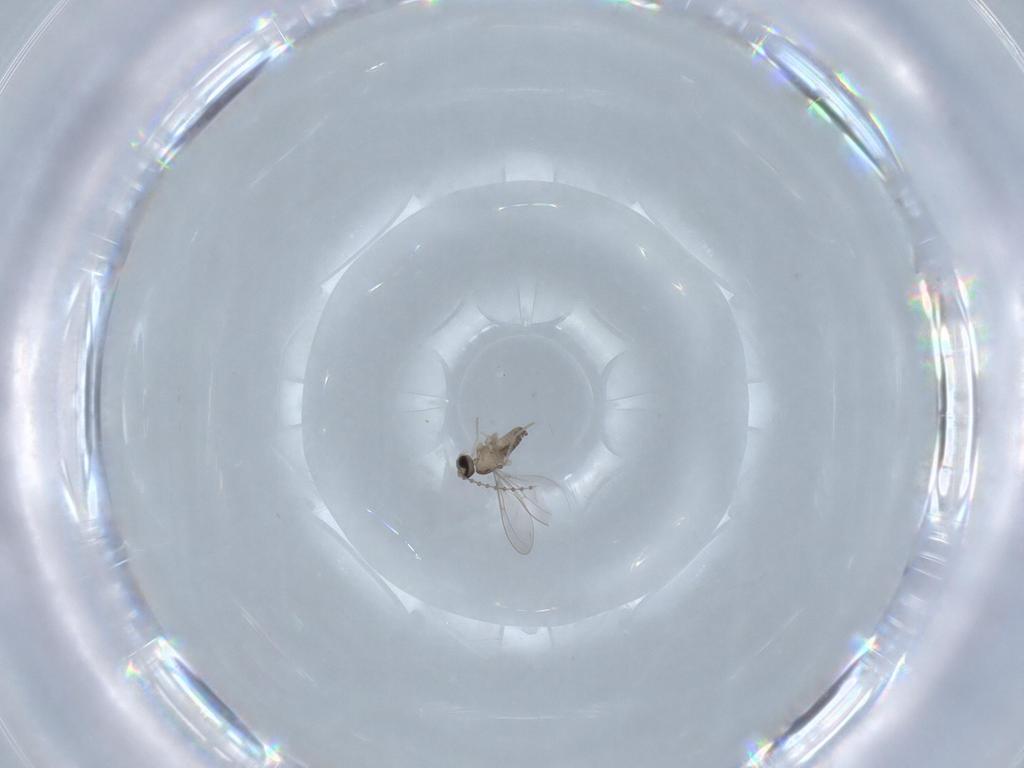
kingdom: Animalia
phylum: Arthropoda
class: Insecta
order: Diptera
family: Cecidomyiidae
